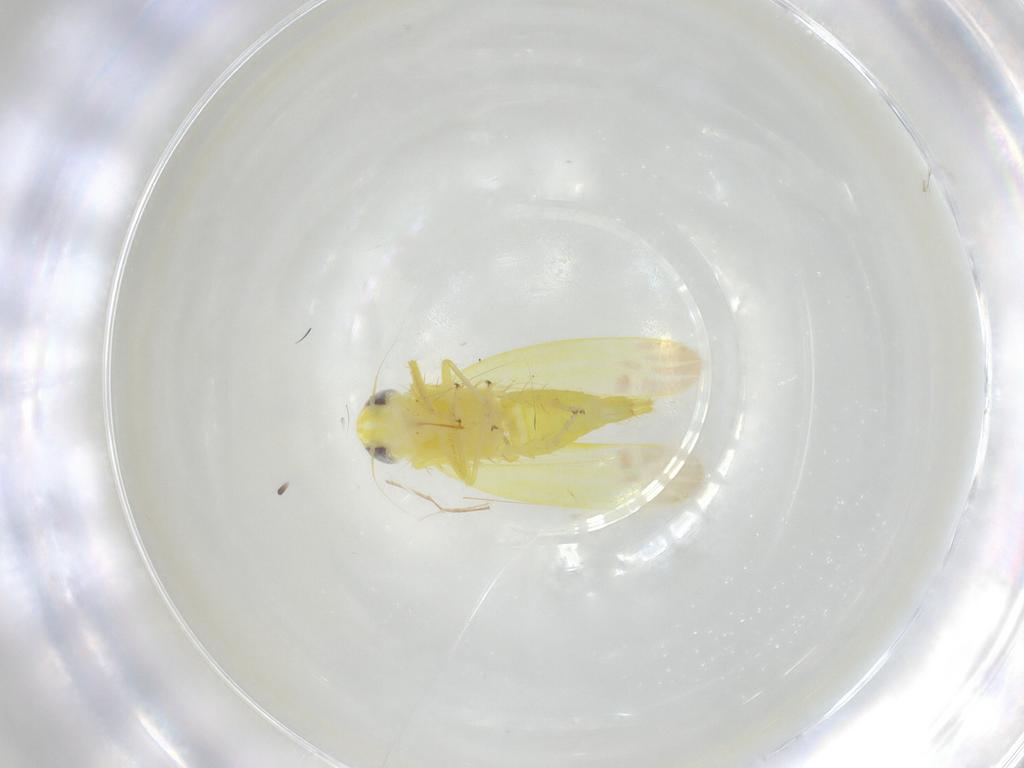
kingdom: Animalia
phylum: Arthropoda
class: Insecta
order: Hemiptera
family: Cicadellidae
